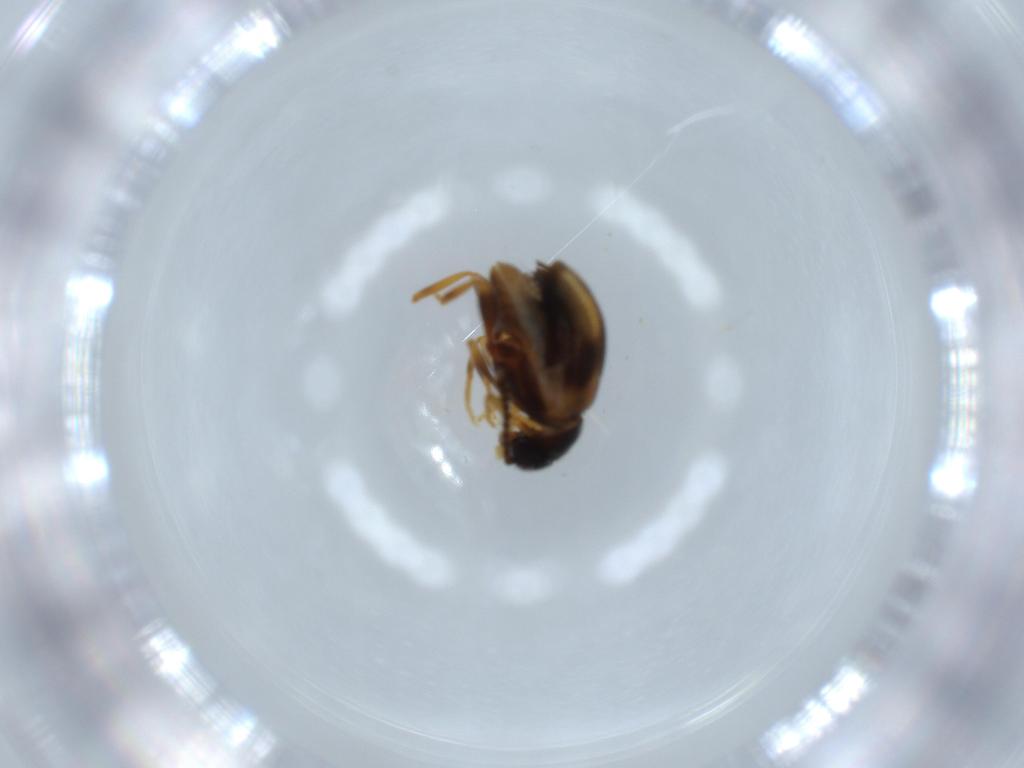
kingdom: Animalia
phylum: Arthropoda
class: Insecta
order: Coleoptera
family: Aderidae
